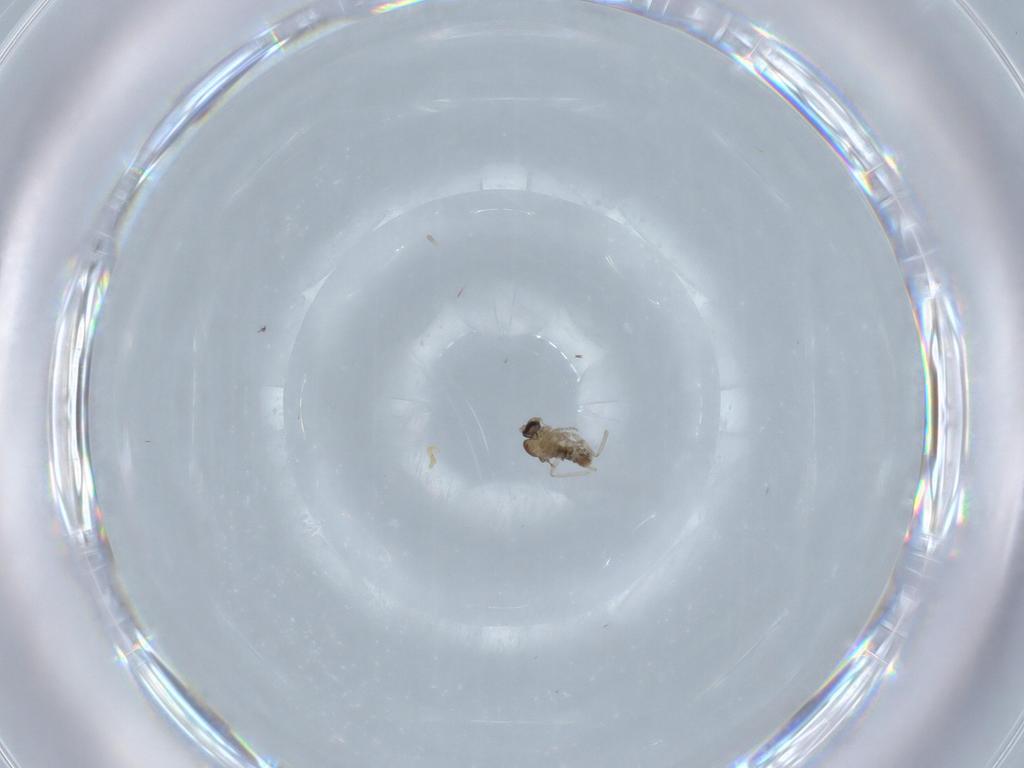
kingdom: Animalia
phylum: Arthropoda
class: Insecta
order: Diptera
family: Cecidomyiidae
